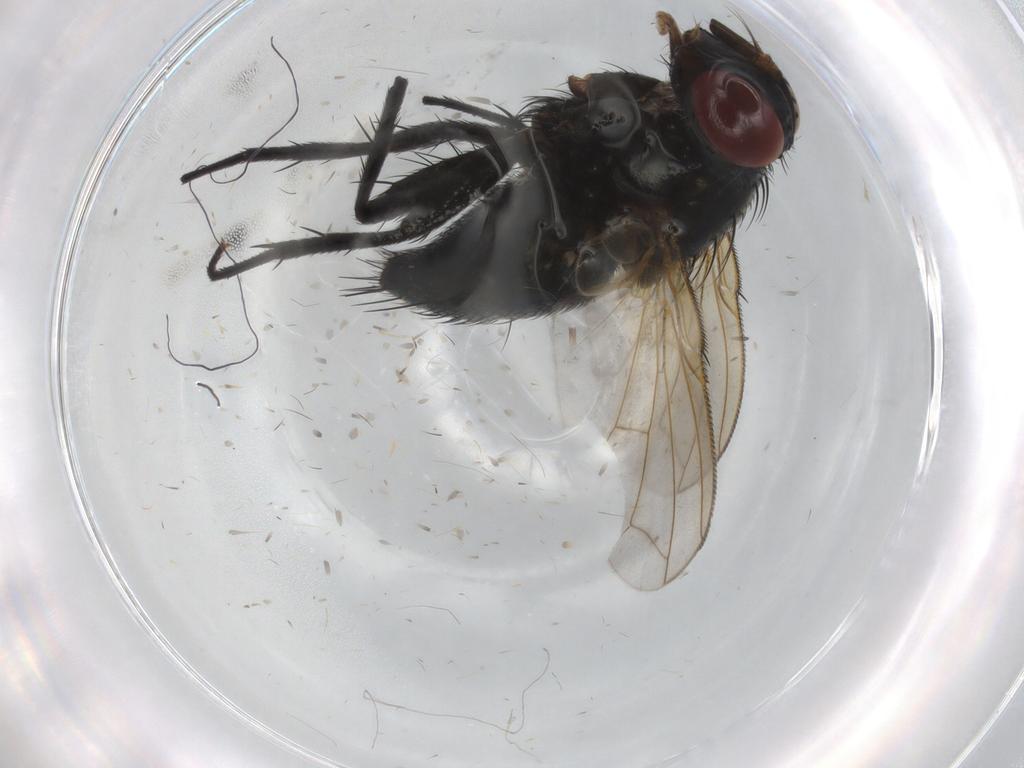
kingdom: Animalia
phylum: Arthropoda
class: Insecta
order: Diptera
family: Tachinidae
